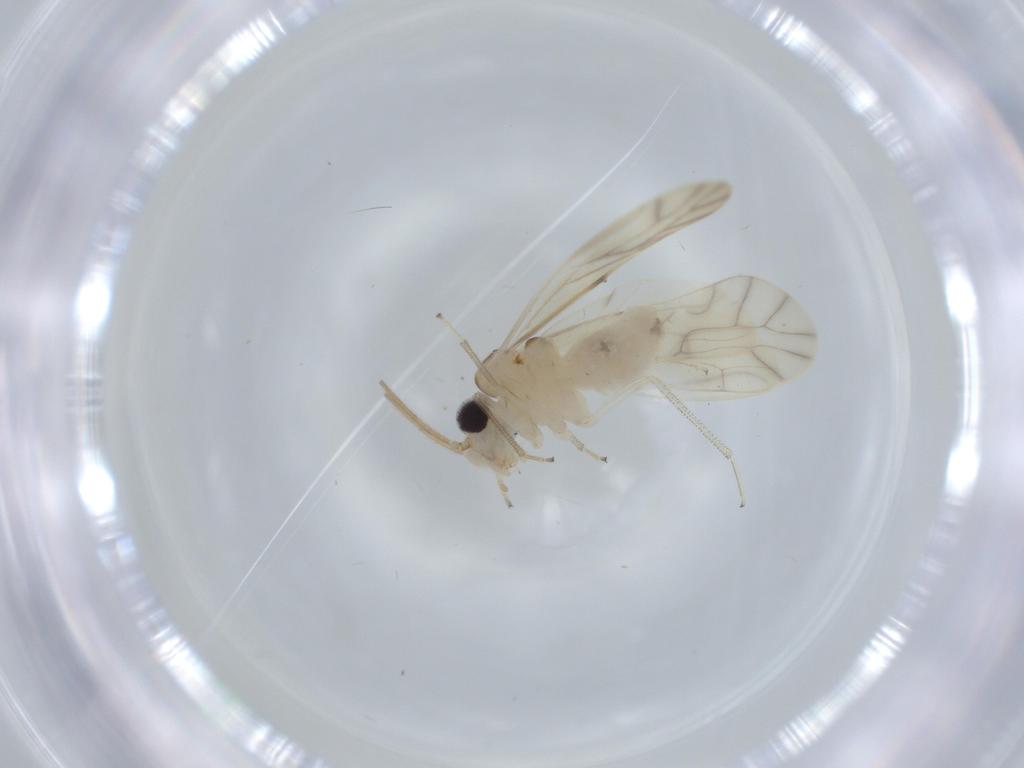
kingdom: Animalia
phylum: Arthropoda
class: Insecta
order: Psocodea
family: Caeciliusidae
